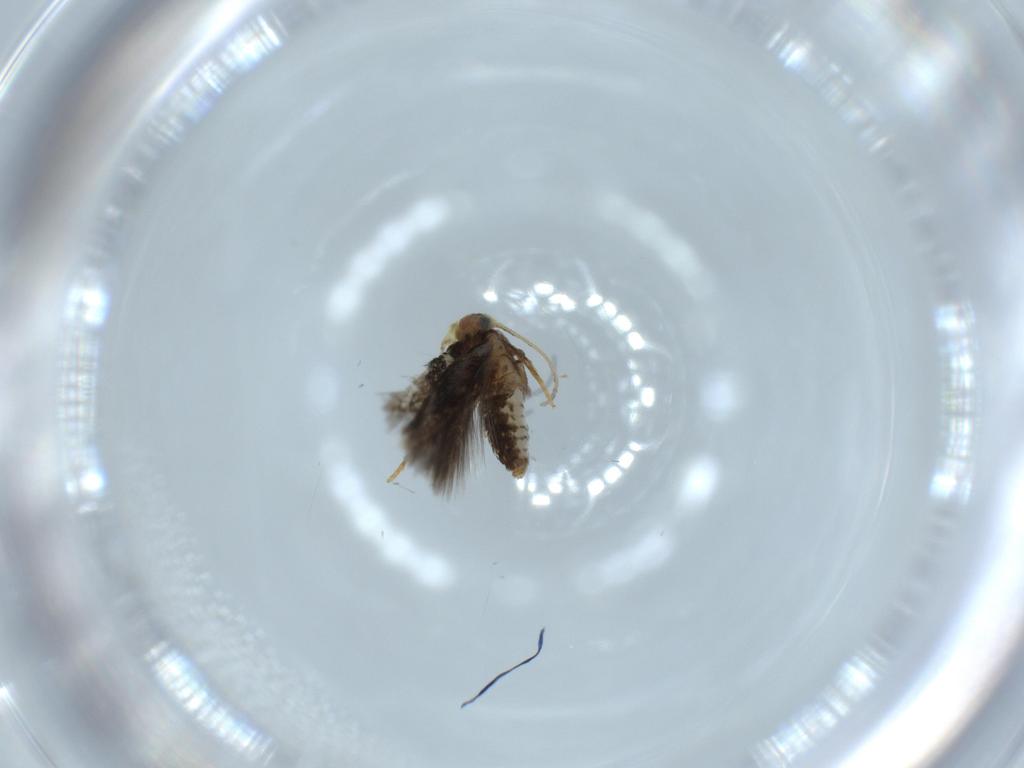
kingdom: Animalia
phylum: Arthropoda
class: Insecta
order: Lepidoptera
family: Nepticulidae
